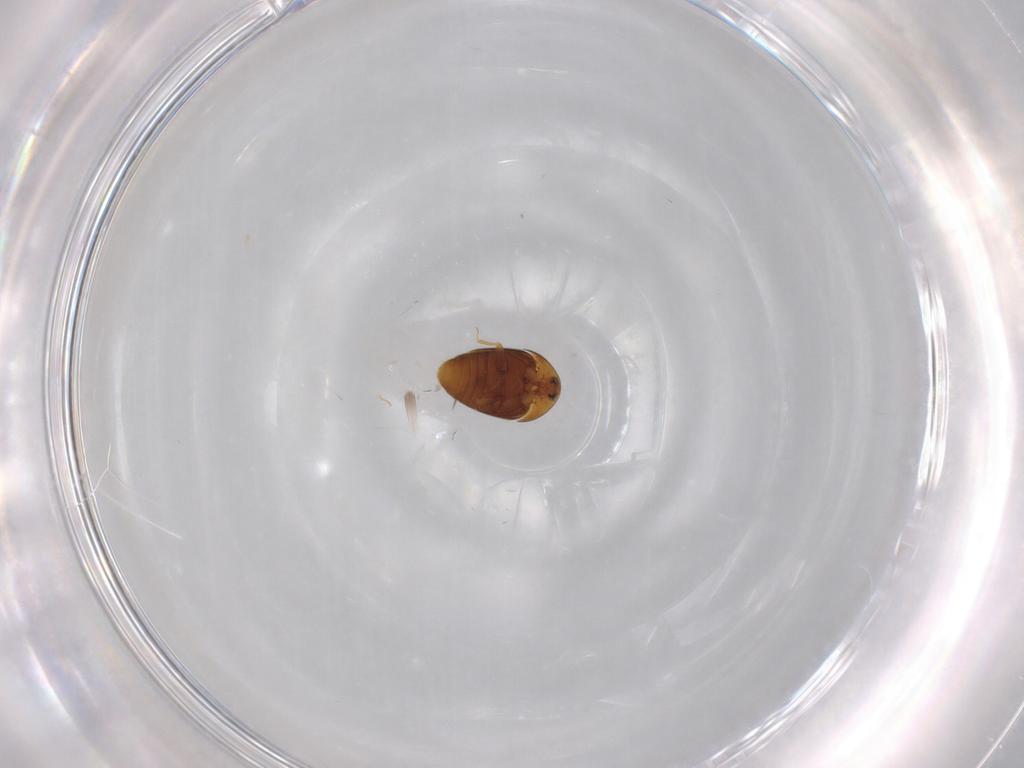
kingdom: Animalia
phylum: Arthropoda
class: Insecta
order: Coleoptera
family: Corylophidae
